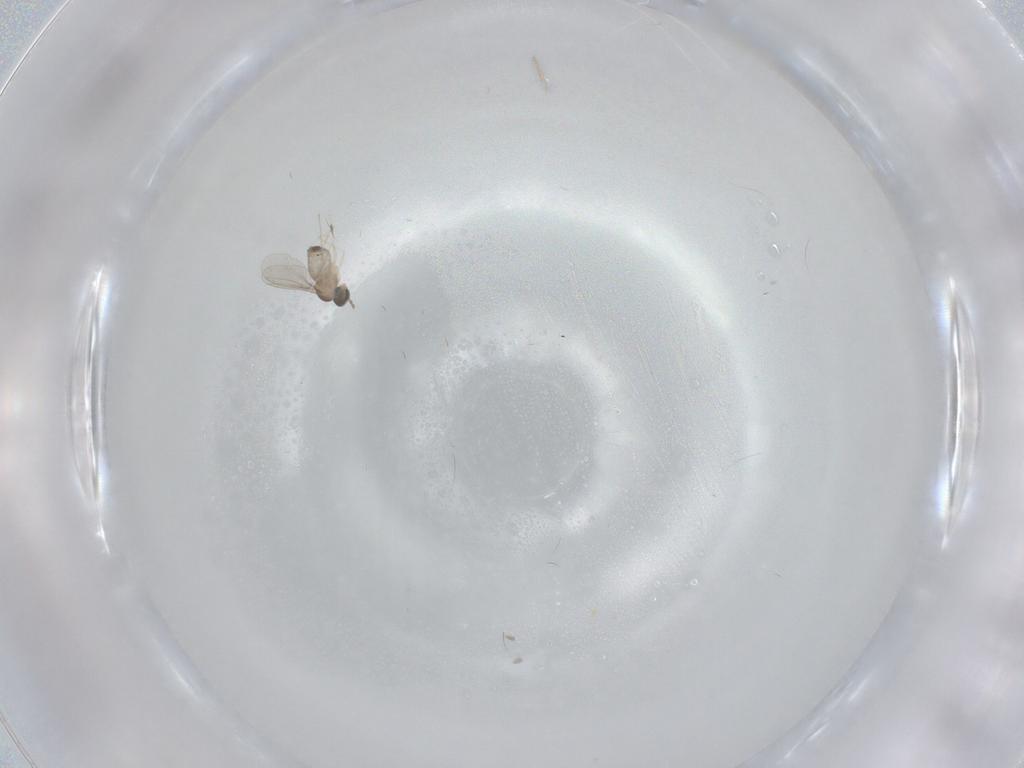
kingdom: Animalia
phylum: Arthropoda
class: Insecta
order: Diptera
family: Cecidomyiidae
